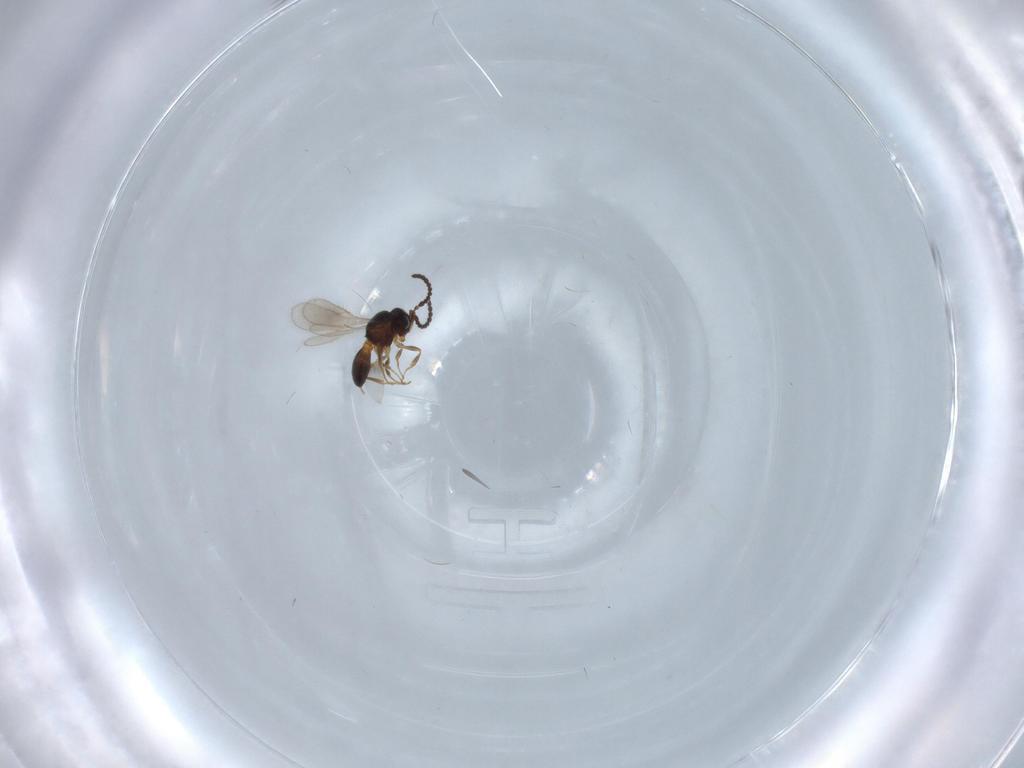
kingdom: Animalia
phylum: Arthropoda
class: Insecta
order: Hymenoptera
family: Scelionidae
